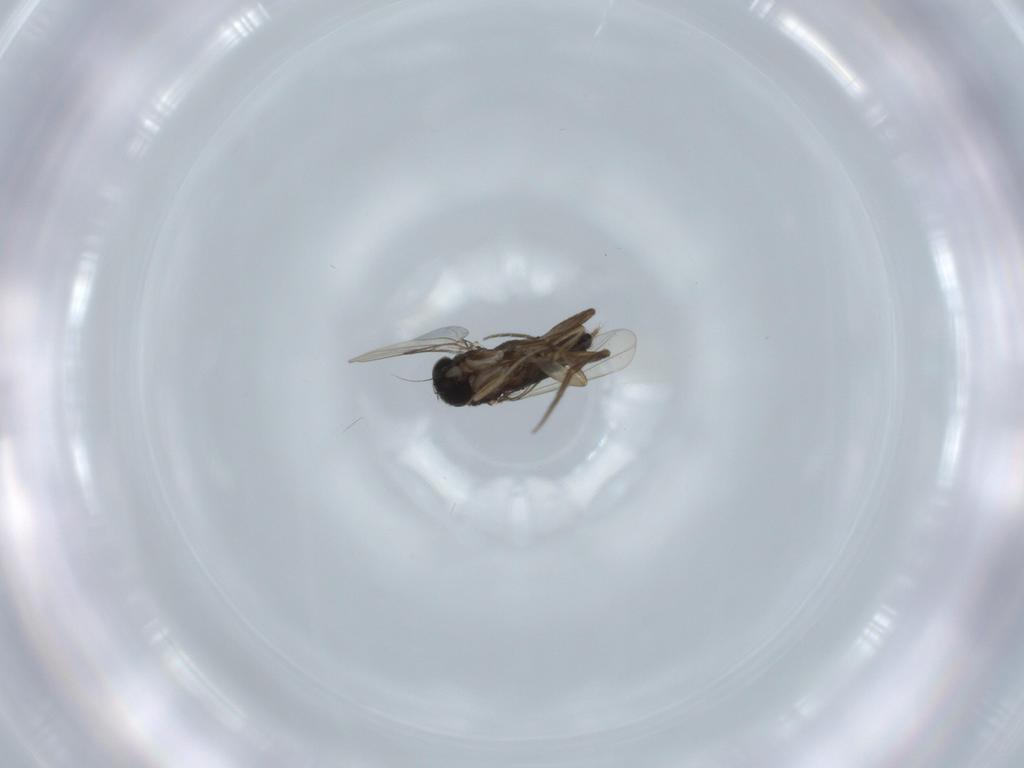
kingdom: Animalia
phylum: Arthropoda
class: Insecta
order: Diptera
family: Phoridae
